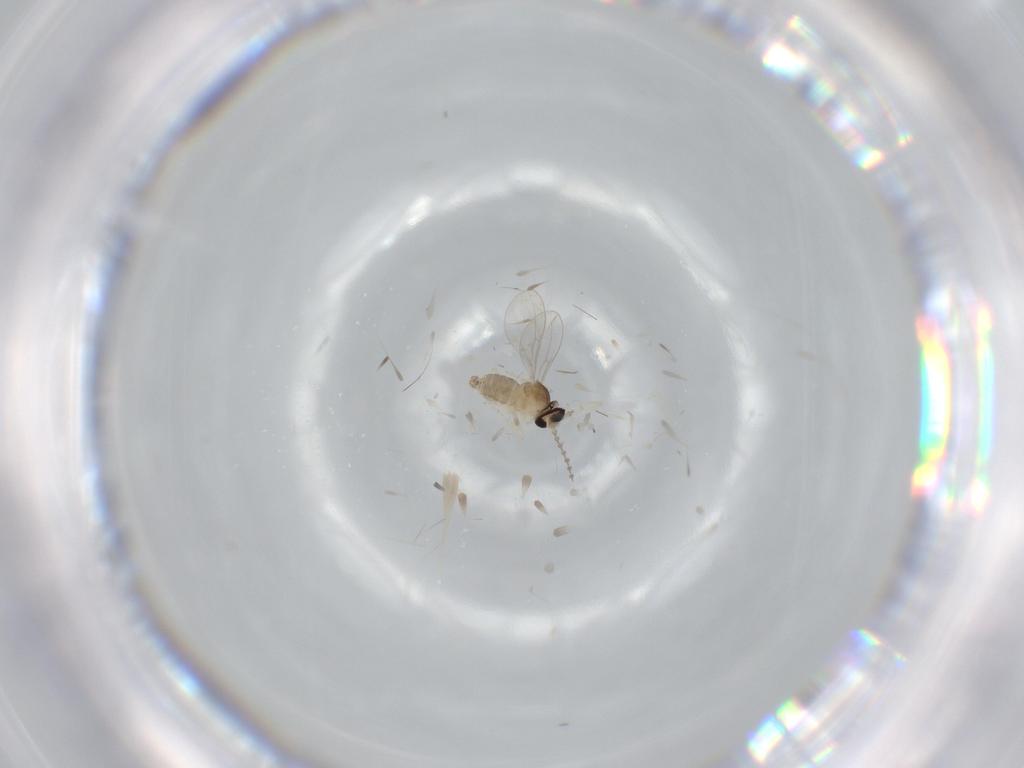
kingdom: Animalia
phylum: Arthropoda
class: Insecta
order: Diptera
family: Cecidomyiidae
